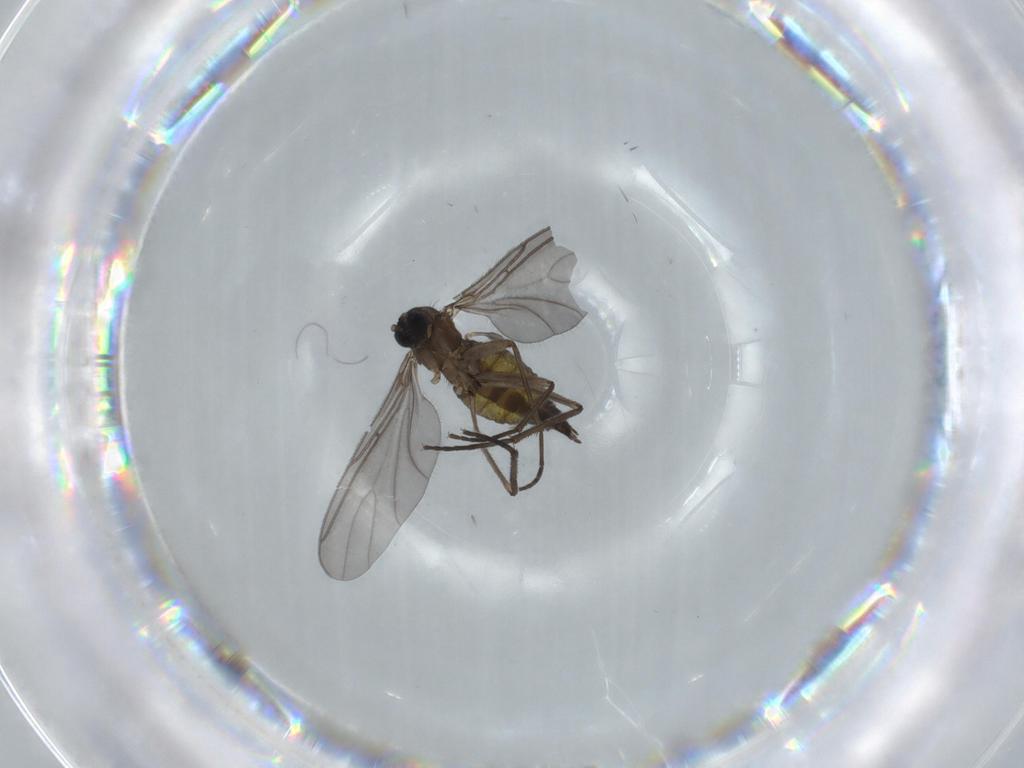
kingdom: Animalia
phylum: Arthropoda
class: Insecta
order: Diptera
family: Sciaridae
